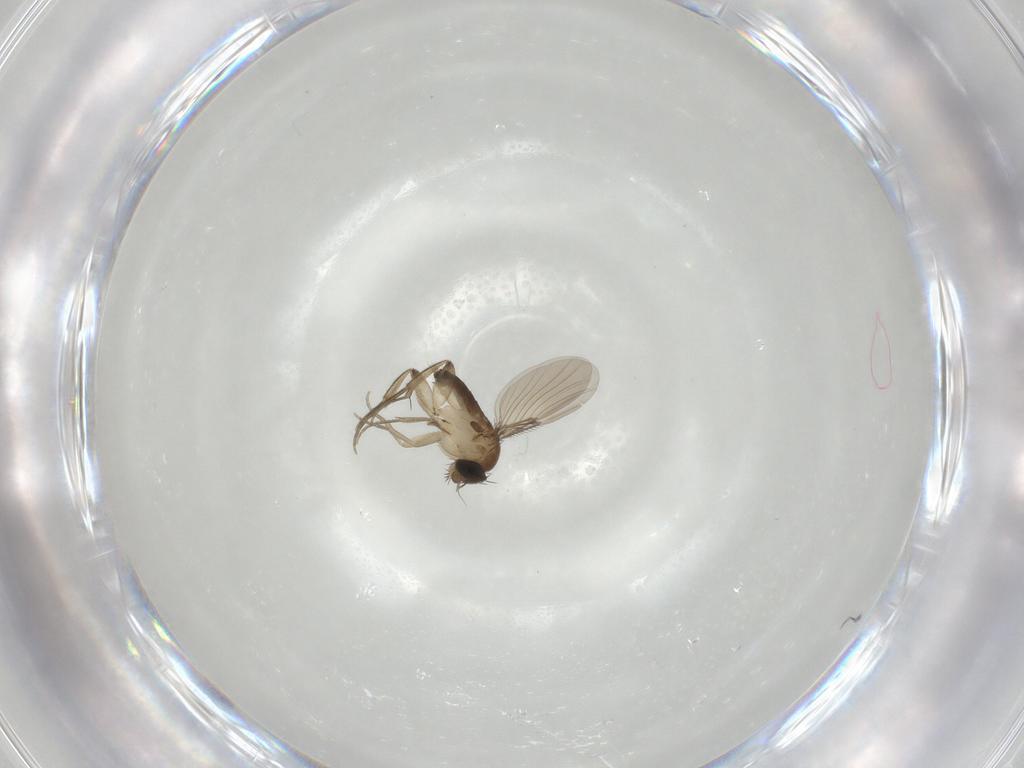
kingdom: Animalia
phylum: Arthropoda
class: Insecta
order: Diptera
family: Phoridae
